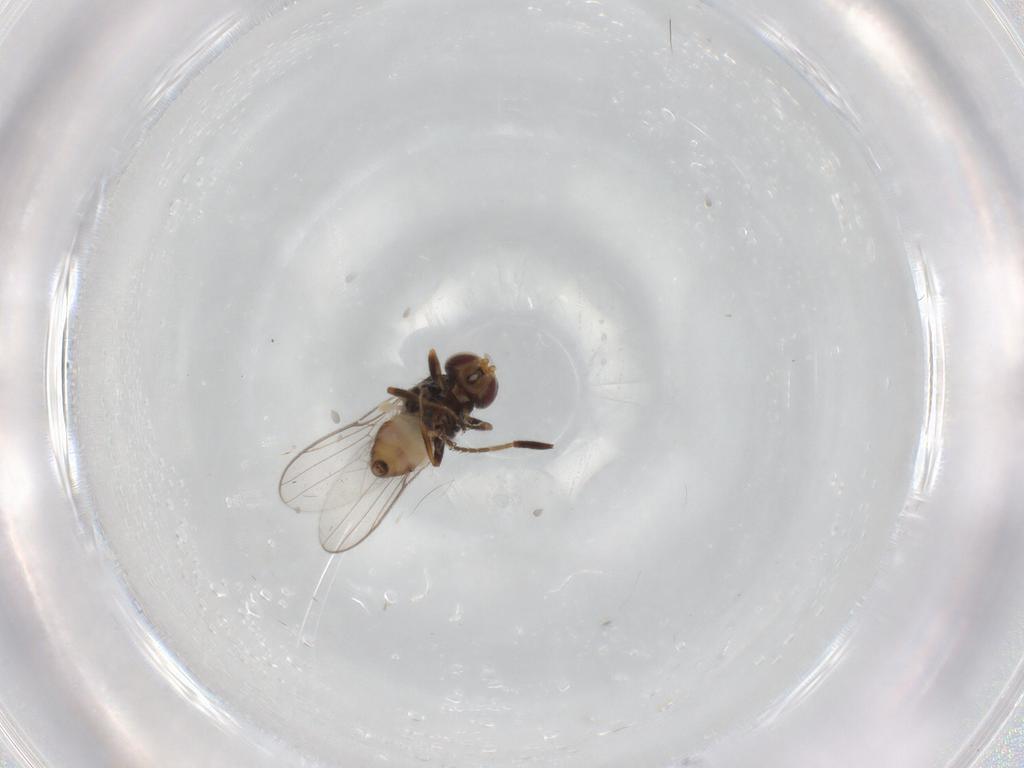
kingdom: Animalia
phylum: Arthropoda
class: Insecta
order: Diptera
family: Chloropidae
